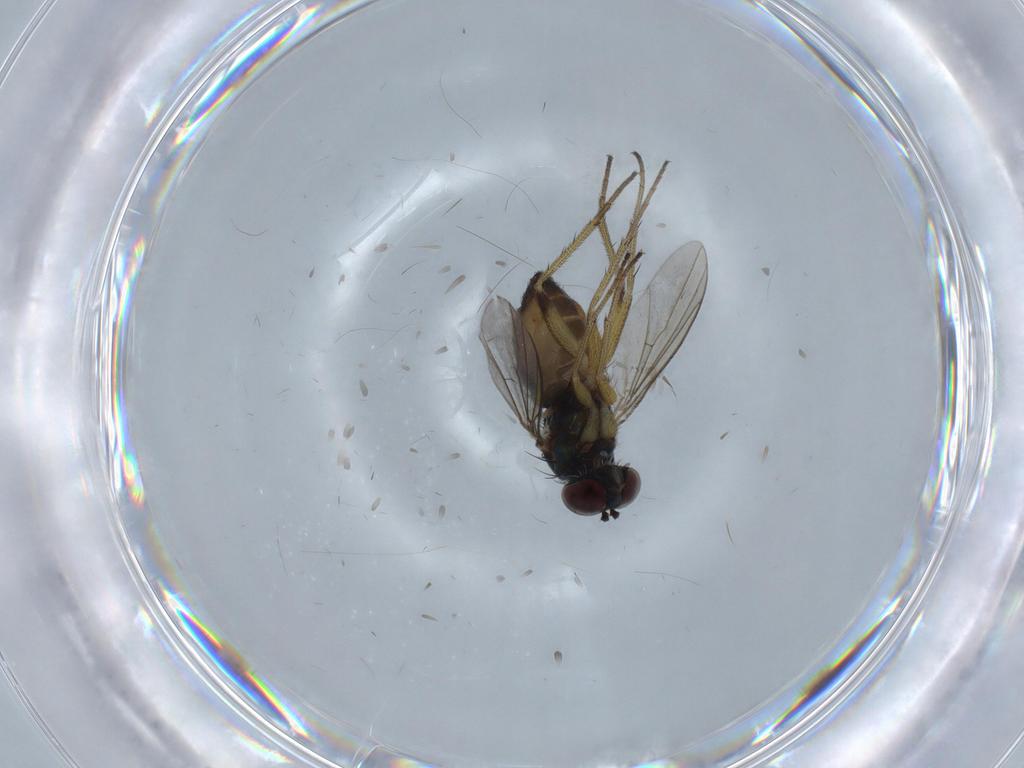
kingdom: Animalia
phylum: Arthropoda
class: Insecta
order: Diptera
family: Dolichopodidae
